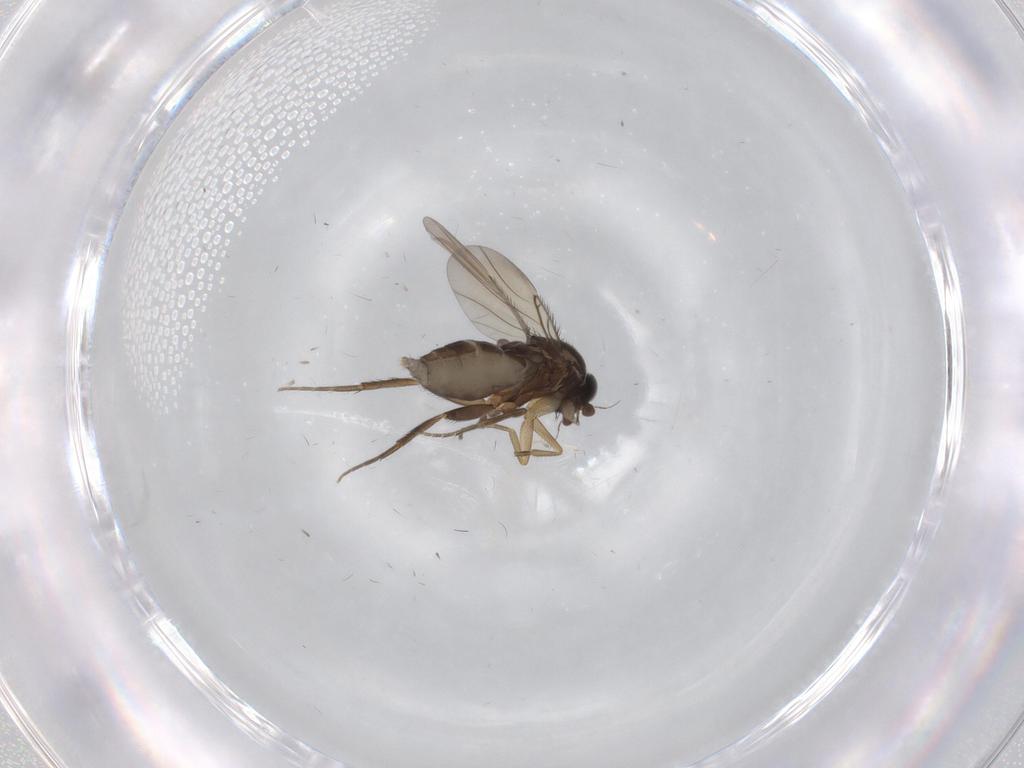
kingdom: Animalia
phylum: Arthropoda
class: Insecta
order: Diptera
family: Phoridae
